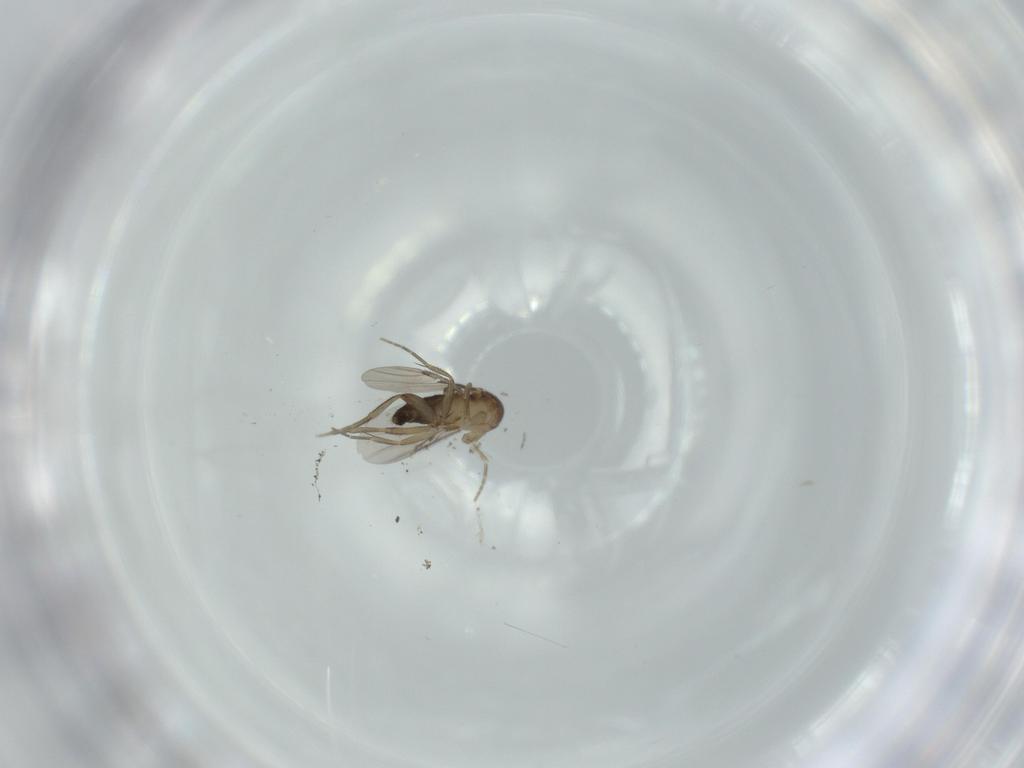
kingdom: Animalia
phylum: Arthropoda
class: Insecta
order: Diptera
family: Phoridae
